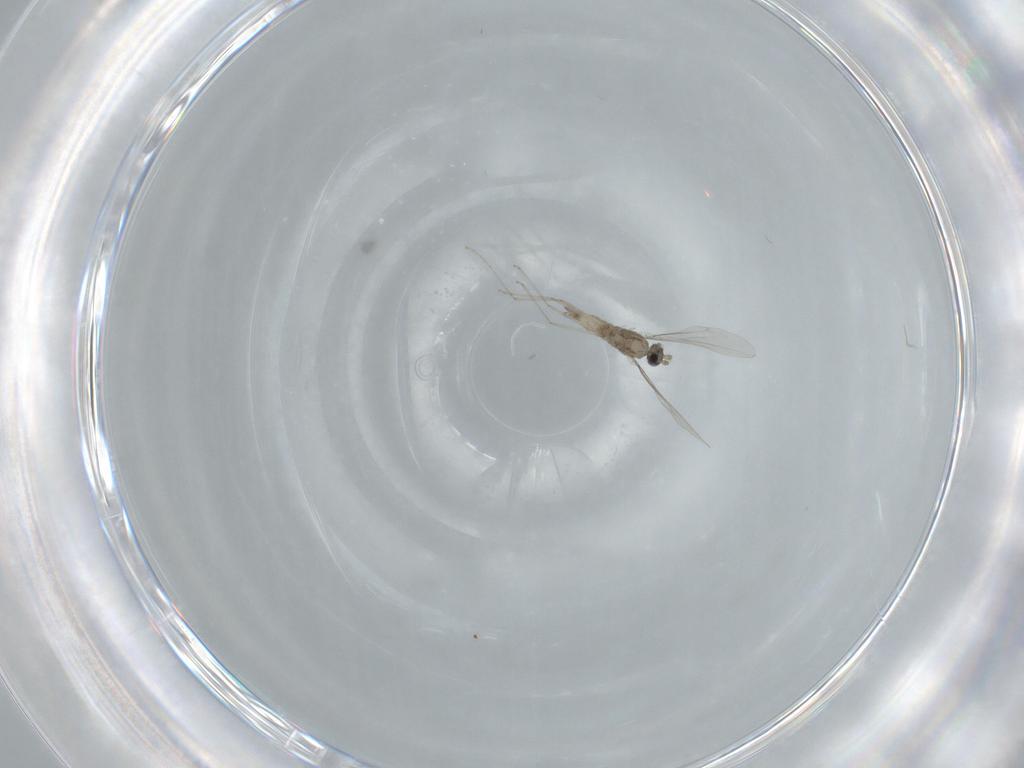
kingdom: Animalia
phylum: Arthropoda
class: Insecta
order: Diptera
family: Cecidomyiidae
